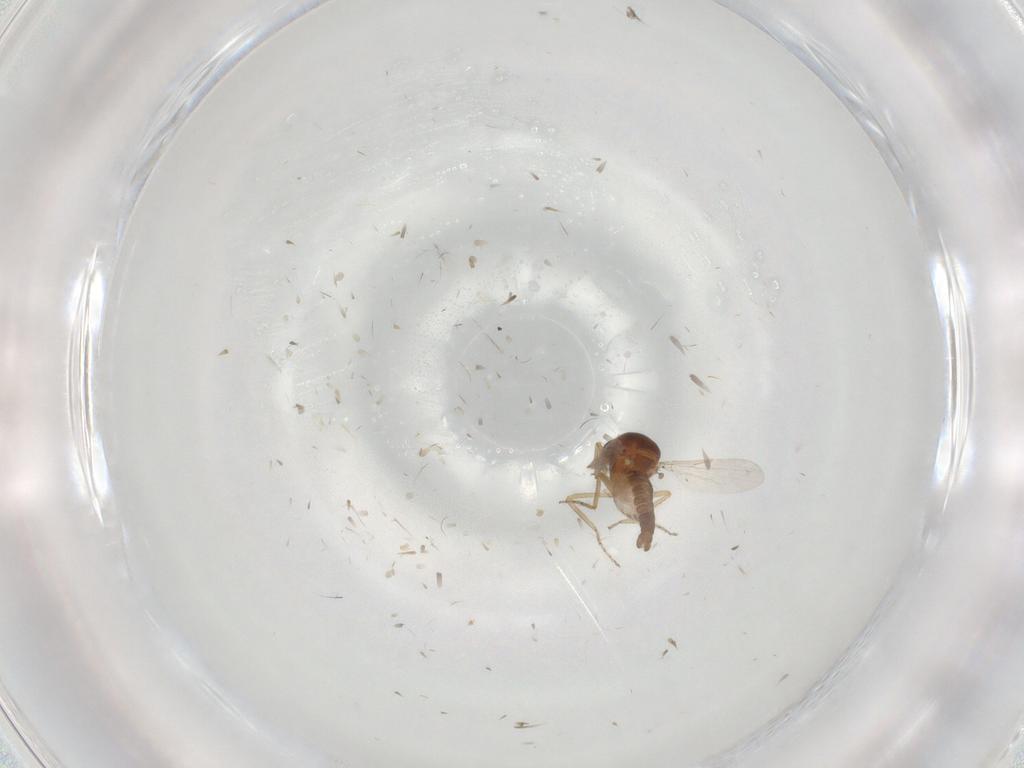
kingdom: Animalia
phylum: Arthropoda
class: Insecta
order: Diptera
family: Ceratopogonidae
